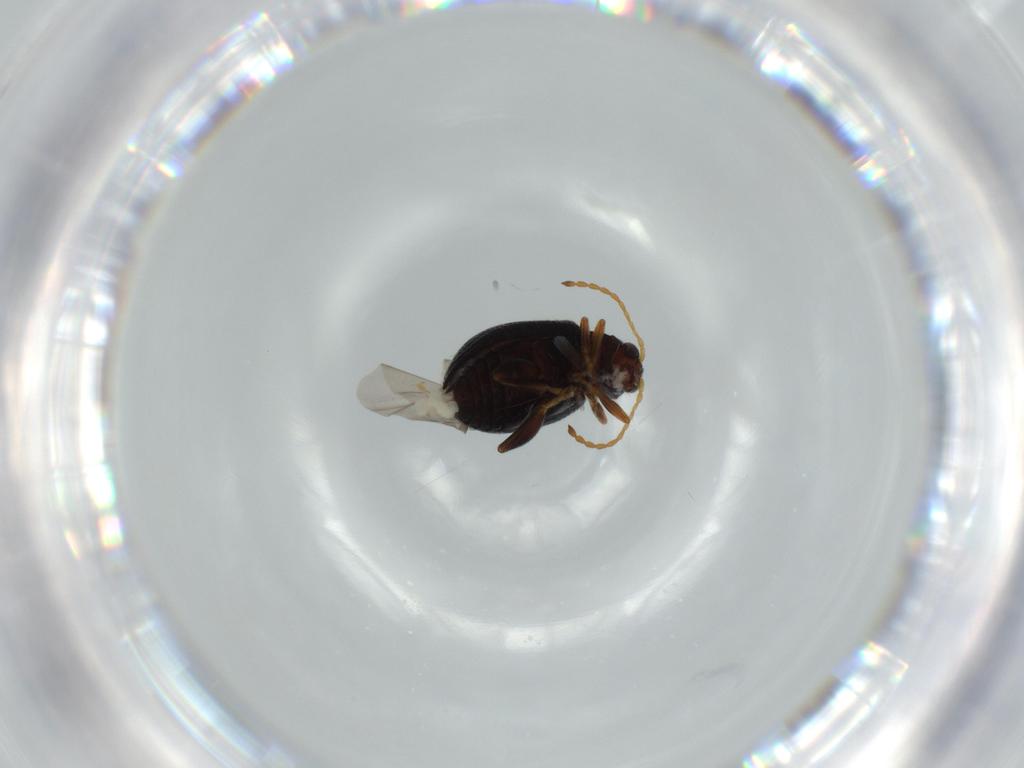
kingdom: Animalia
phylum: Arthropoda
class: Insecta
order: Coleoptera
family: Chrysomelidae
